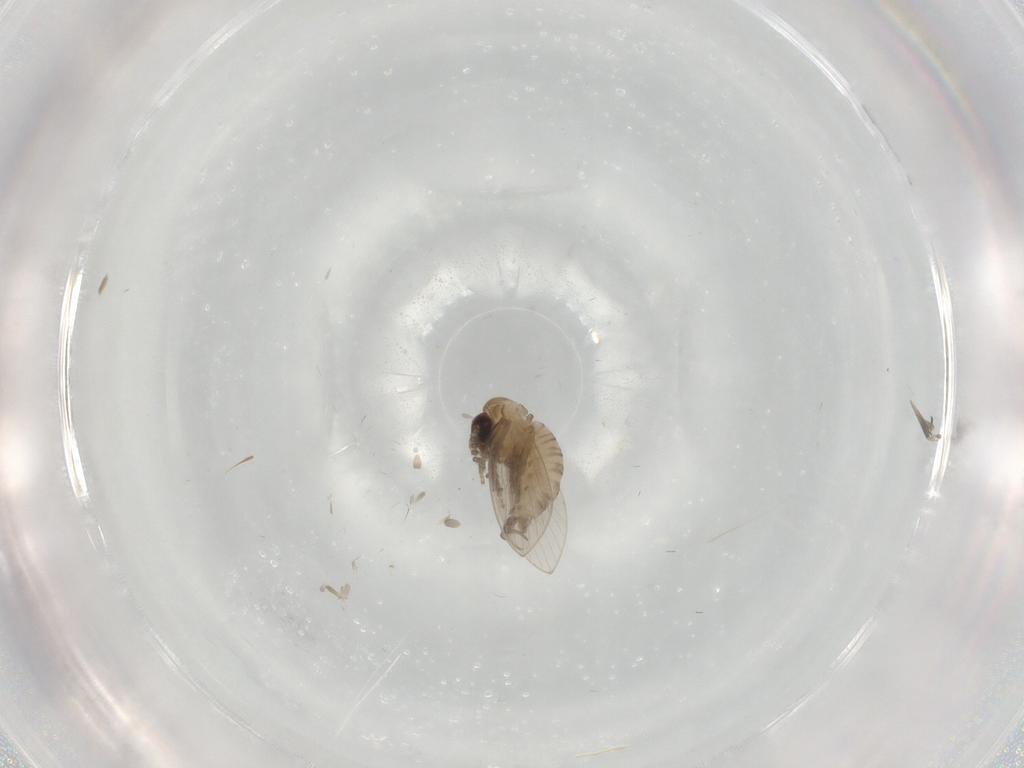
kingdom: Animalia
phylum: Arthropoda
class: Insecta
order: Diptera
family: Psychodidae
